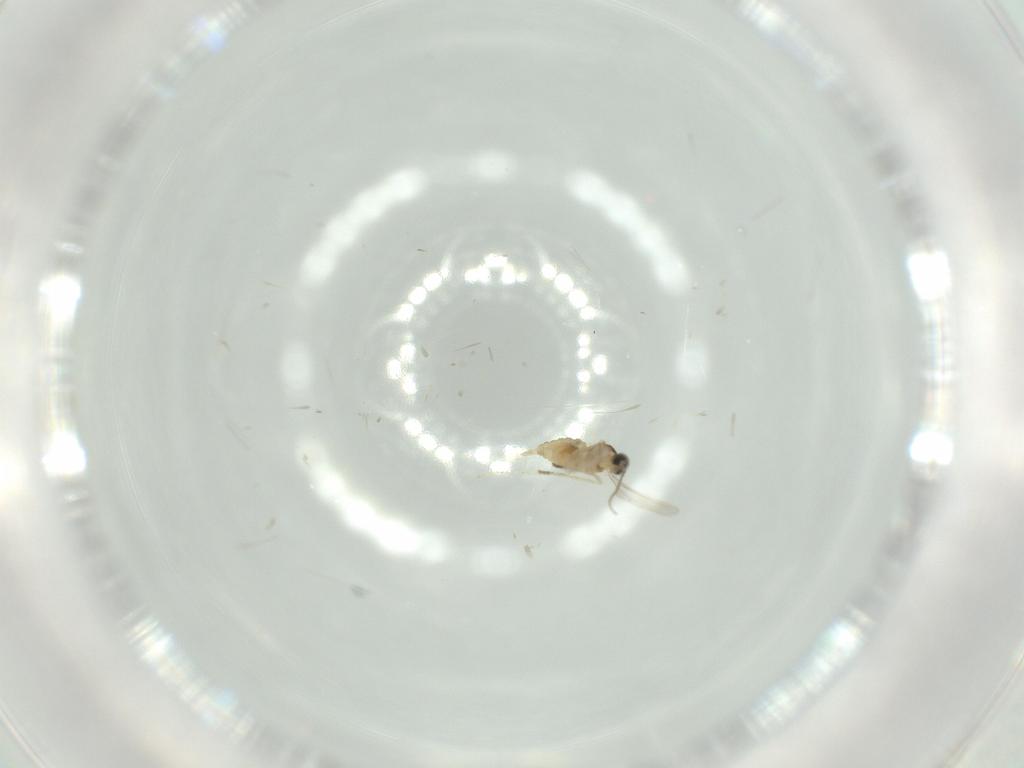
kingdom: Animalia
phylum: Arthropoda
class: Insecta
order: Diptera
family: Cecidomyiidae
